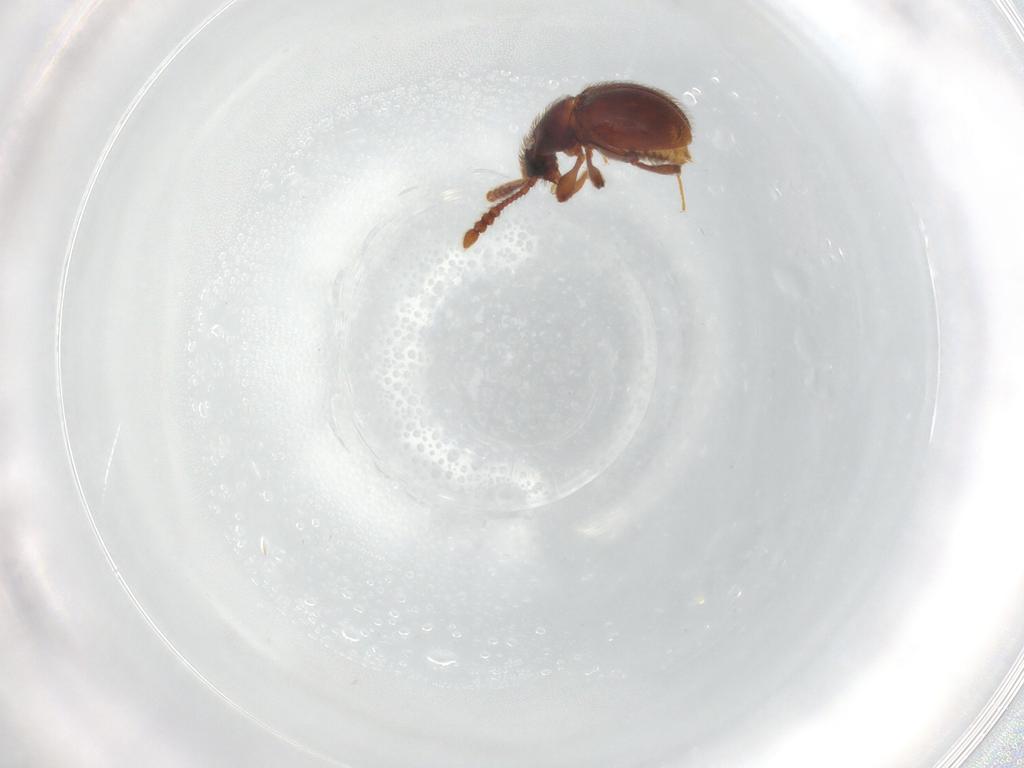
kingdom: Animalia
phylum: Arthropoda
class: Insecta
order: Coleoptera
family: Staphylinidae
